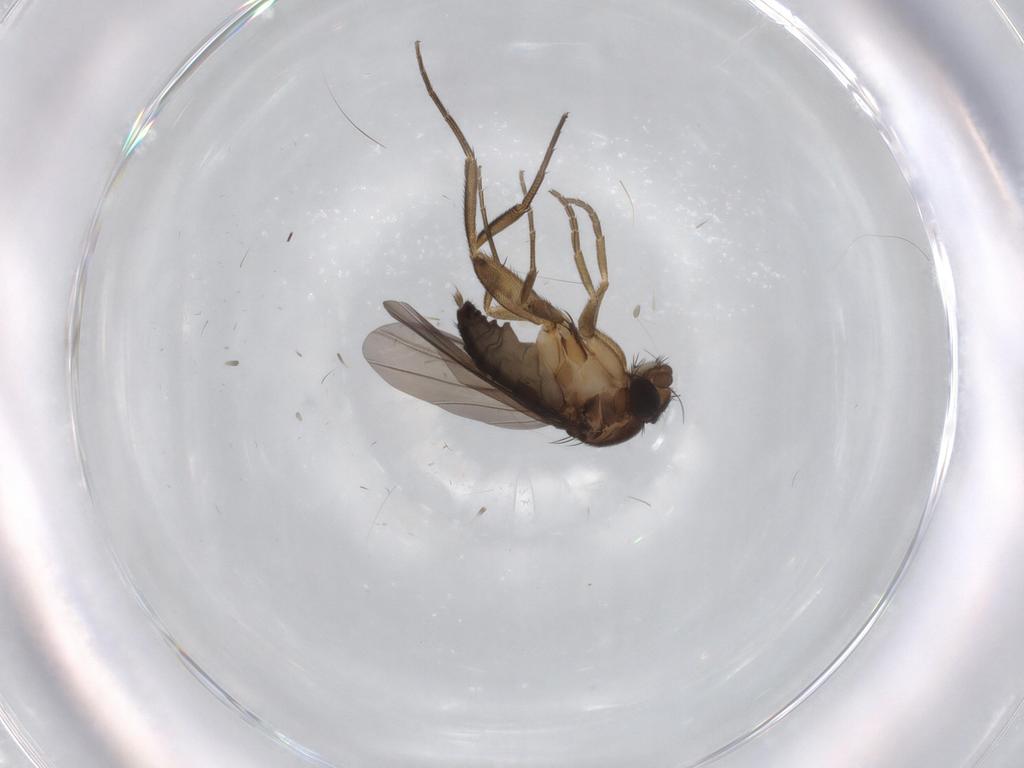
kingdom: Animalia
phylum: Arthropoda
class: Insecta
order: Diptera
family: Phoridae
